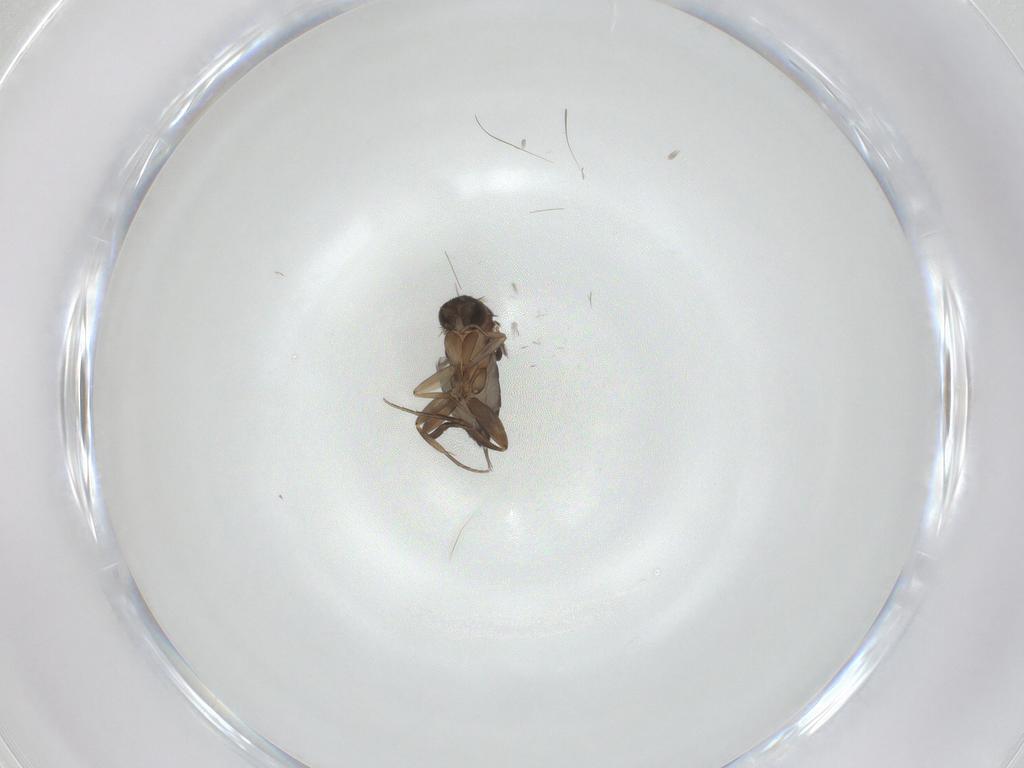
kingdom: Animalia
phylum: Arthropoda
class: Insecta
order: Diptera
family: Phoridae
